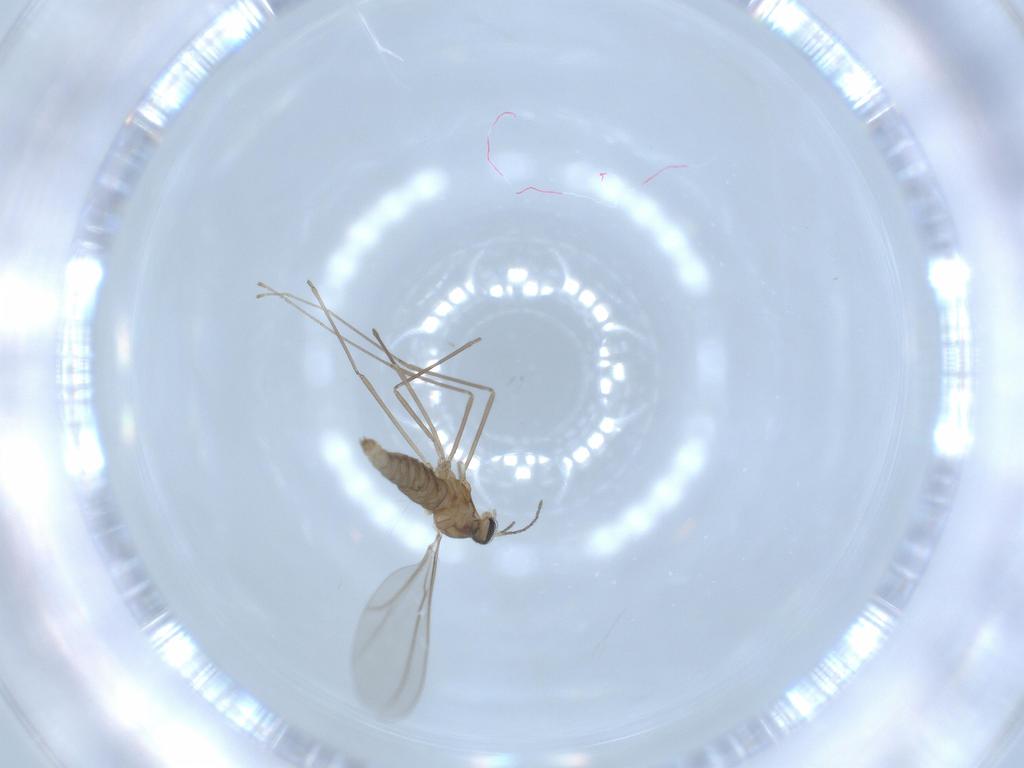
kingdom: Animalia
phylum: Arthropoda
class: Insecta
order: Diptera
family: Cecidomyiidae
